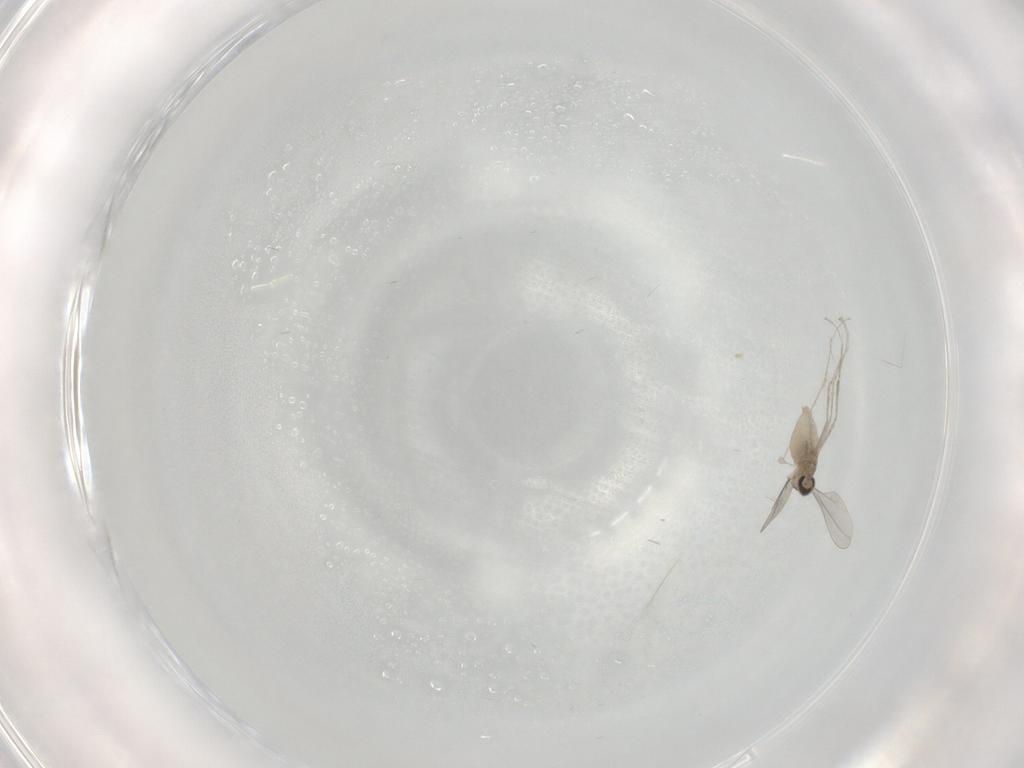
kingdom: Animalia
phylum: Arthropoda
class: Insecta
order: Diptera
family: Cecidomyiidae
